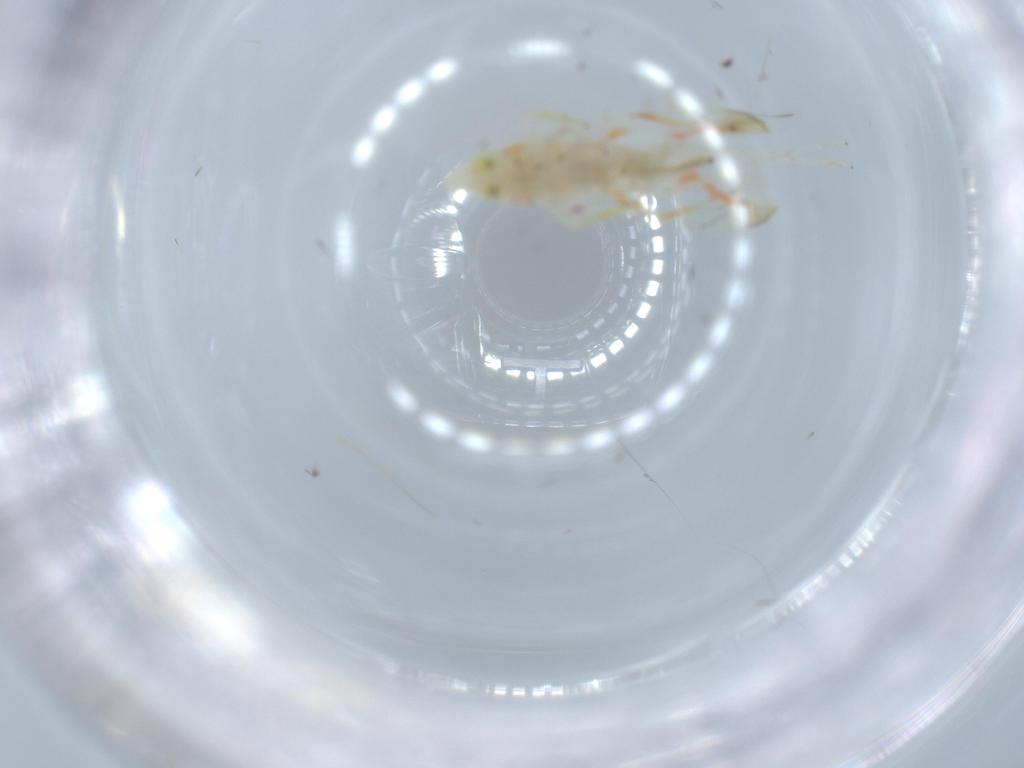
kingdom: Animalia
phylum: Arthropoda
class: Insecta
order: Hemiptera
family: Cicadellidae
